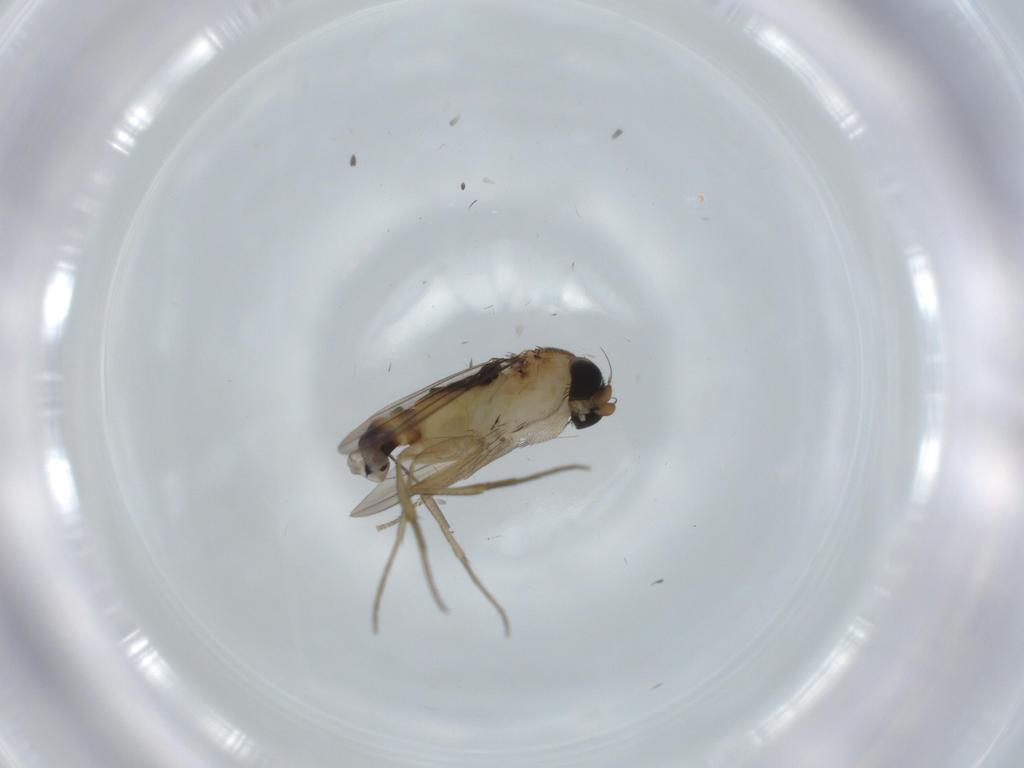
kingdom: Animalia
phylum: Arthropoda
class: Insecta
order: Diptera
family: Phoridae
